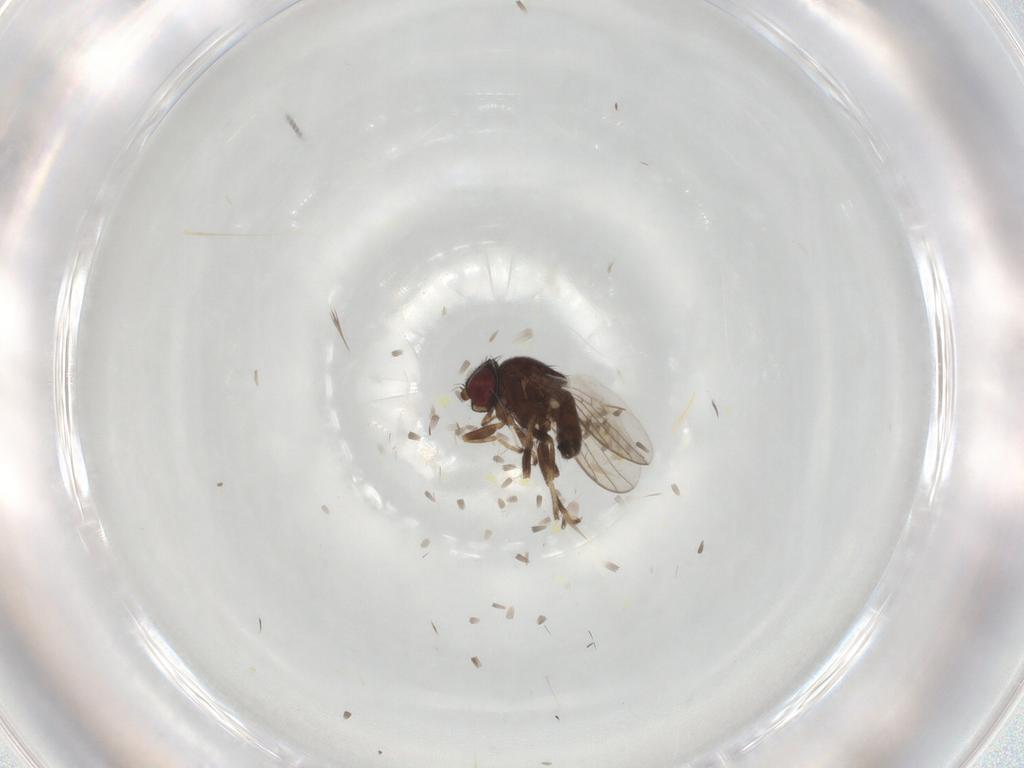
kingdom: Animalia
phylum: Arthropoda
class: Insecta
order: Diptera
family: Chloropidae
